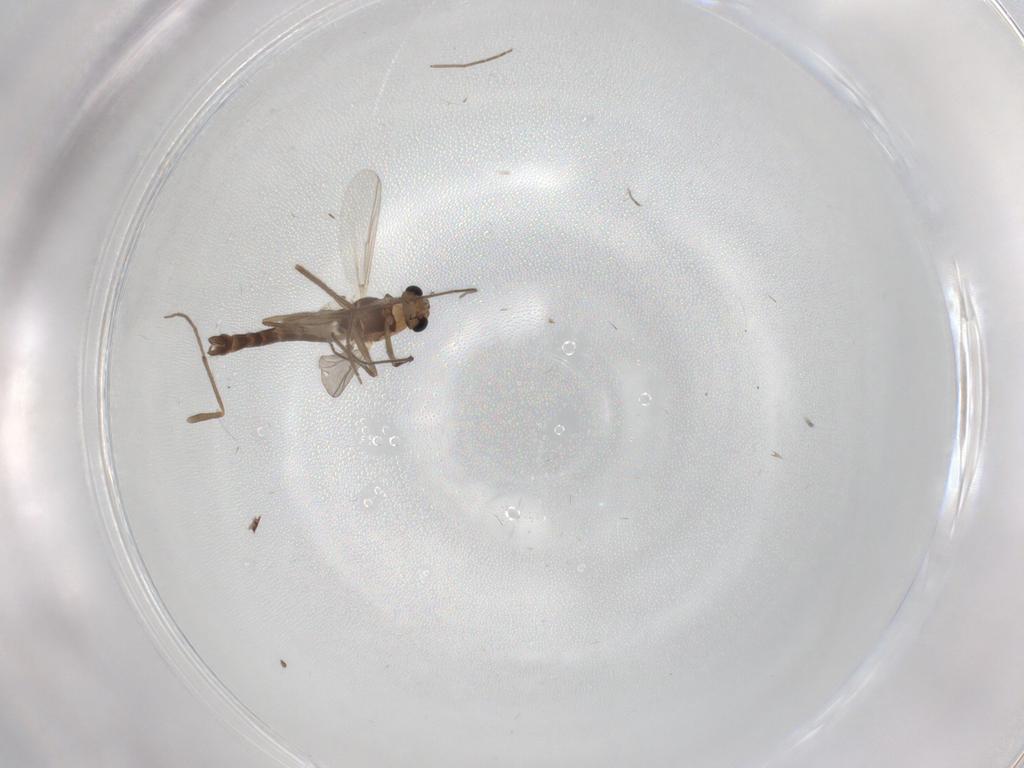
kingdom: Animalia
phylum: Arthropoda
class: Insecta
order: Diptera
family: Chironomidae
